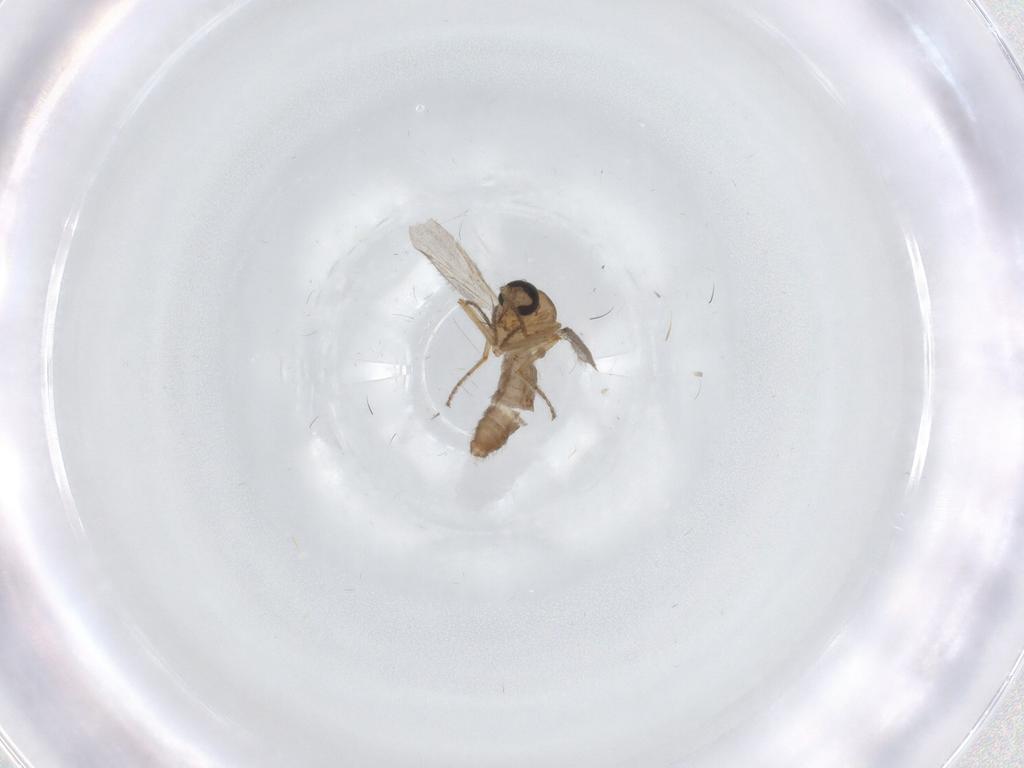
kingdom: Animalia
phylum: Arthropoda
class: Insecta
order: Diptera
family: Ceratopogonidae
